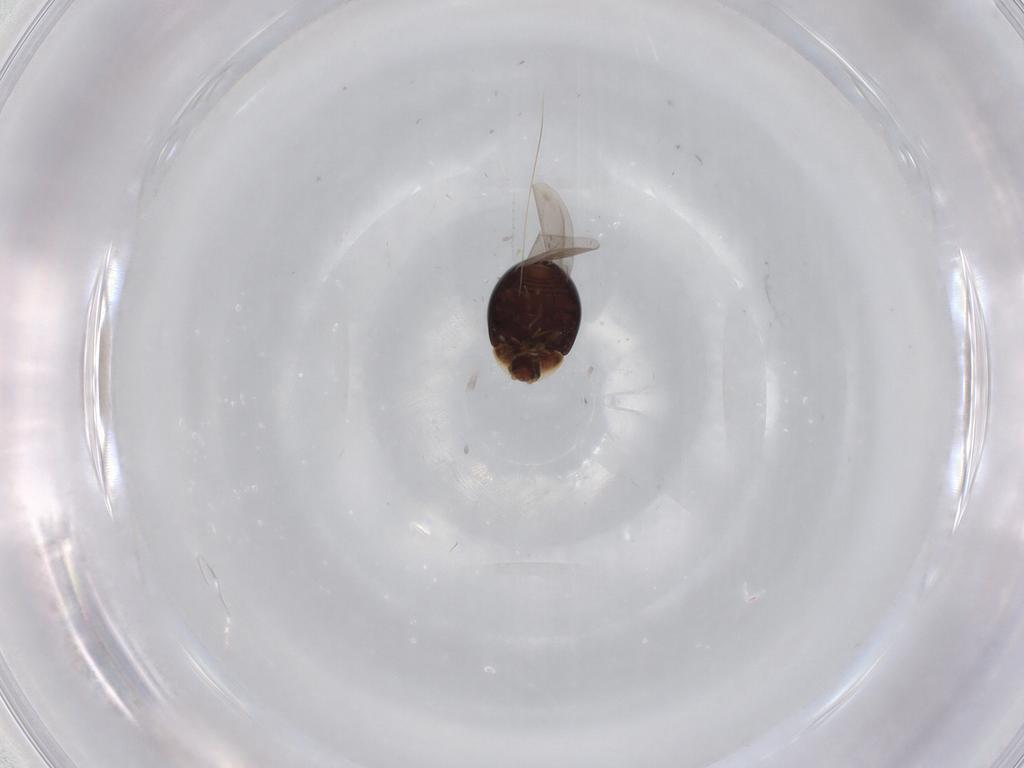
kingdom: Animalia
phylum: Arthropoda
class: Insecta
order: Coleoptera
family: Corylophidae
